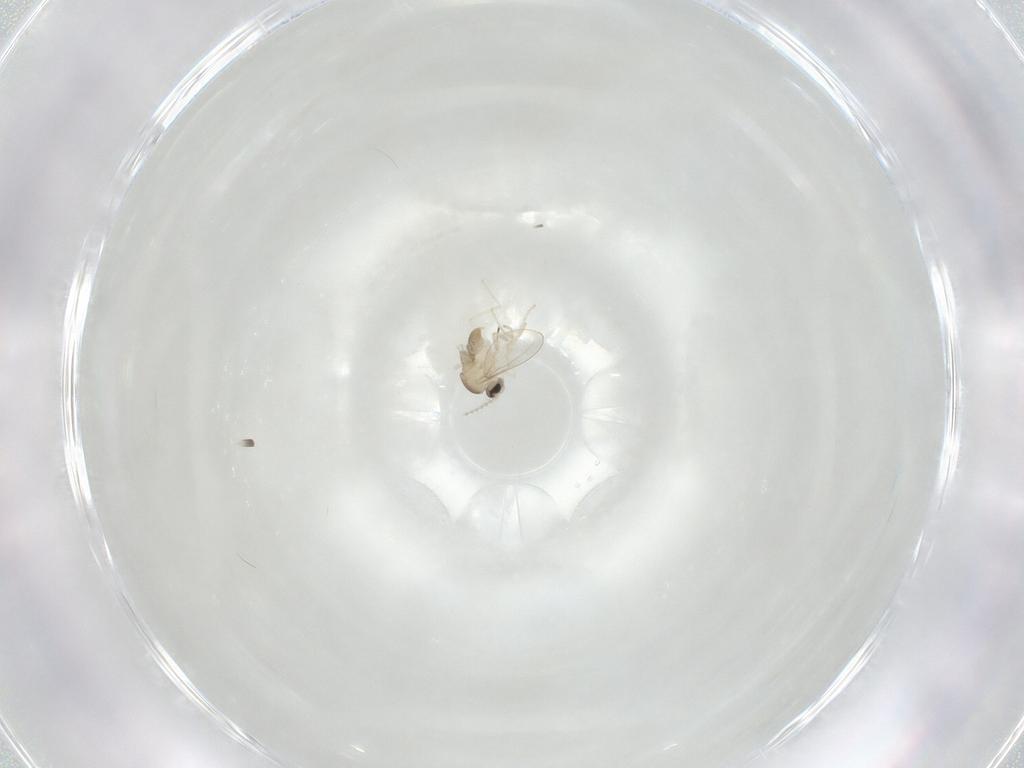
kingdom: Animalia
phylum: Arthropoda
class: Insecta
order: Diptera
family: Cecidomyiidae
